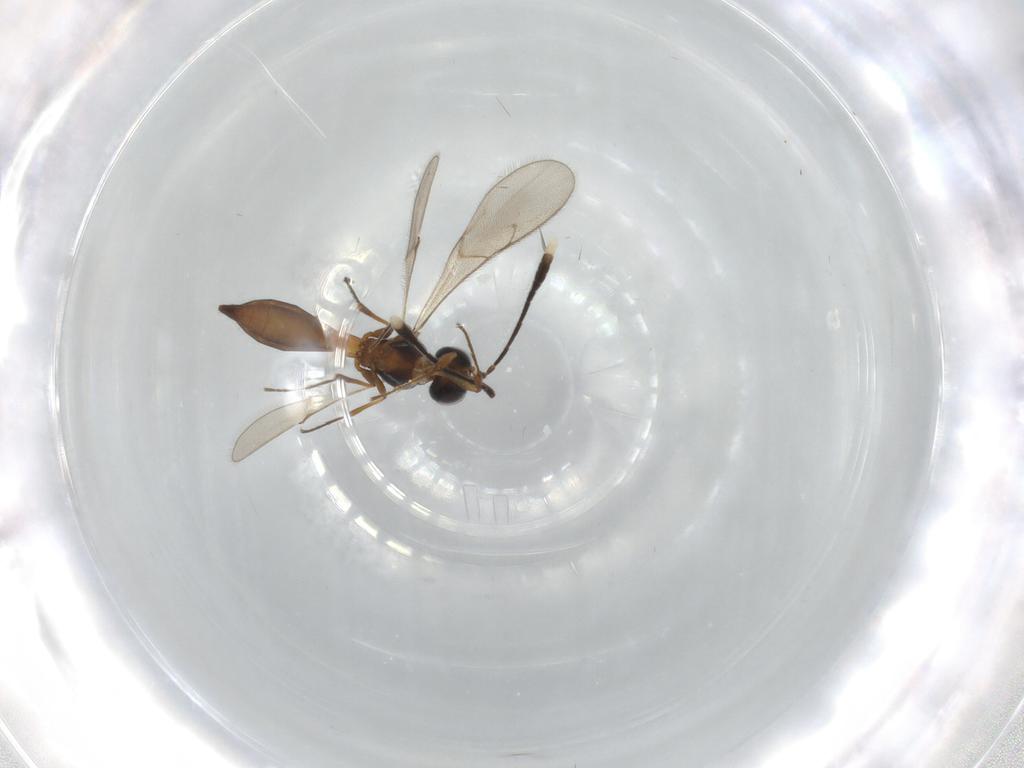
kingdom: Animalia
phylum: Arthropoda
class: Insecta
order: Hymenoptera
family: Scelionidae
